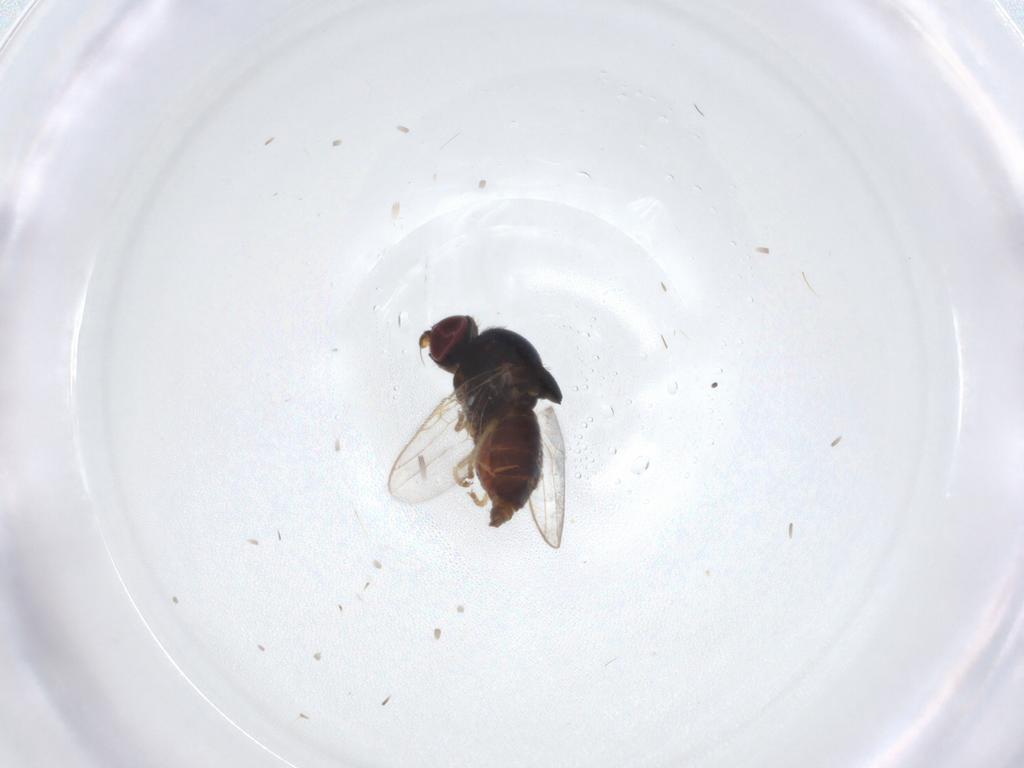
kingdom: Animalia
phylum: Arthropoda
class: Insecta
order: Diptera
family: Chloropidae
